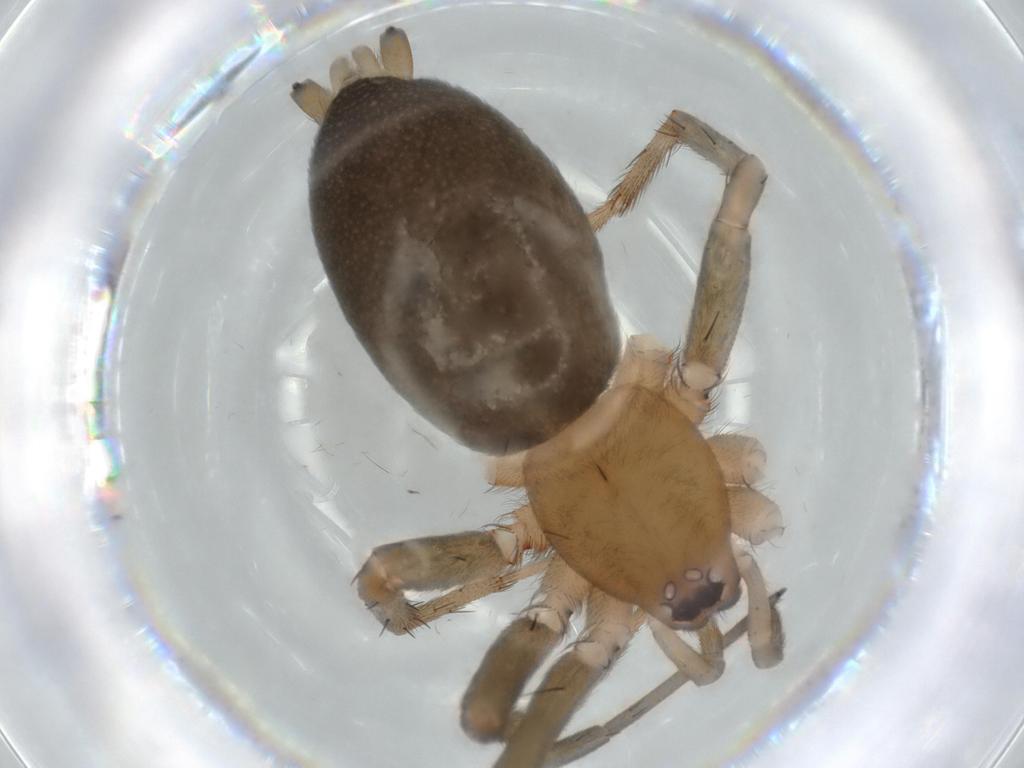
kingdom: Animalia
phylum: Arthropoda
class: Arachnida
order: Araneae
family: Gnaphosidae
